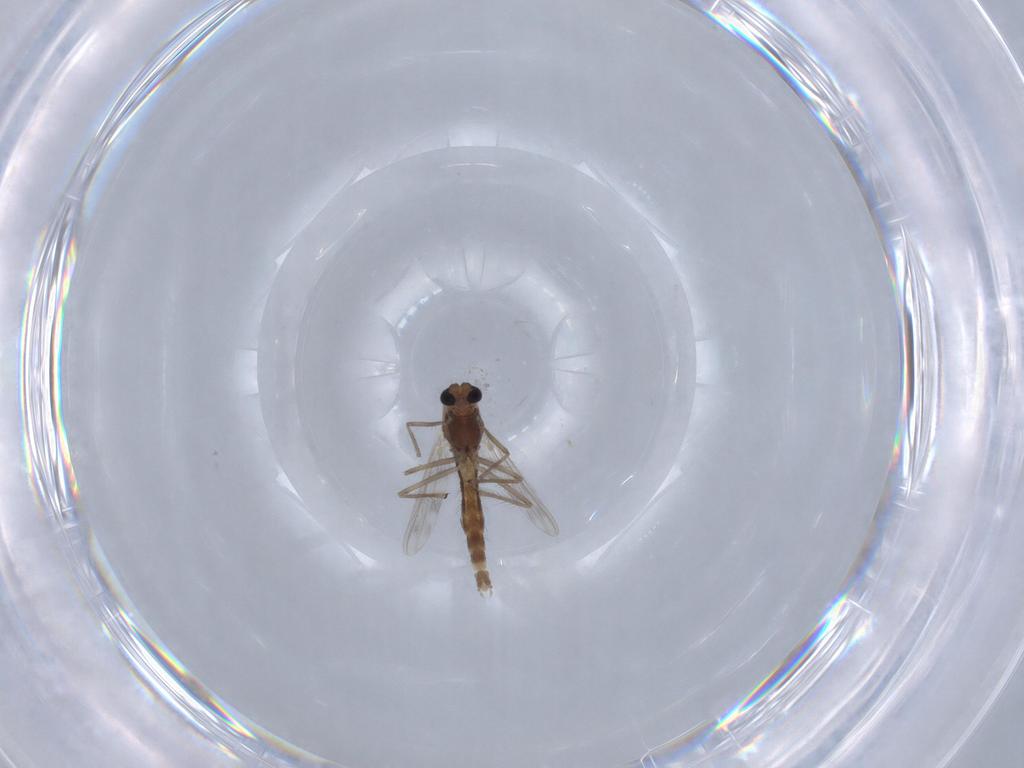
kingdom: Animalia
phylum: Arthropoda
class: Insecta
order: Diptera
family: Chironomidae
